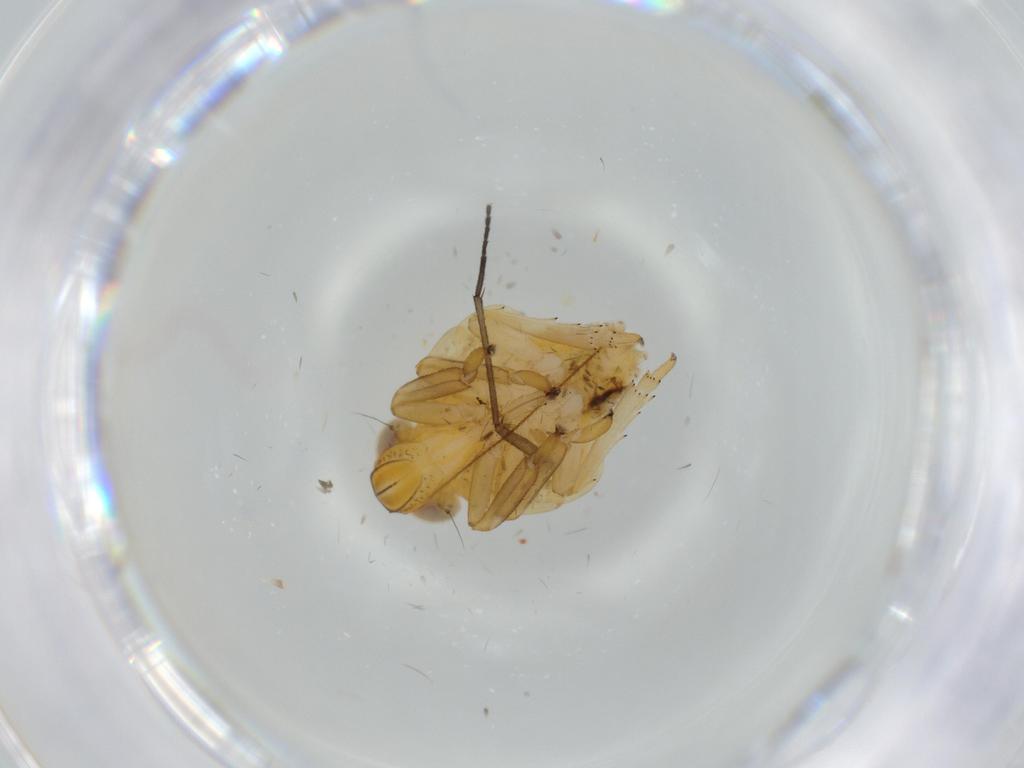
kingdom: Animalia
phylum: Arthropoda
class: Insecta
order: Hemiptera
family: Issidae
